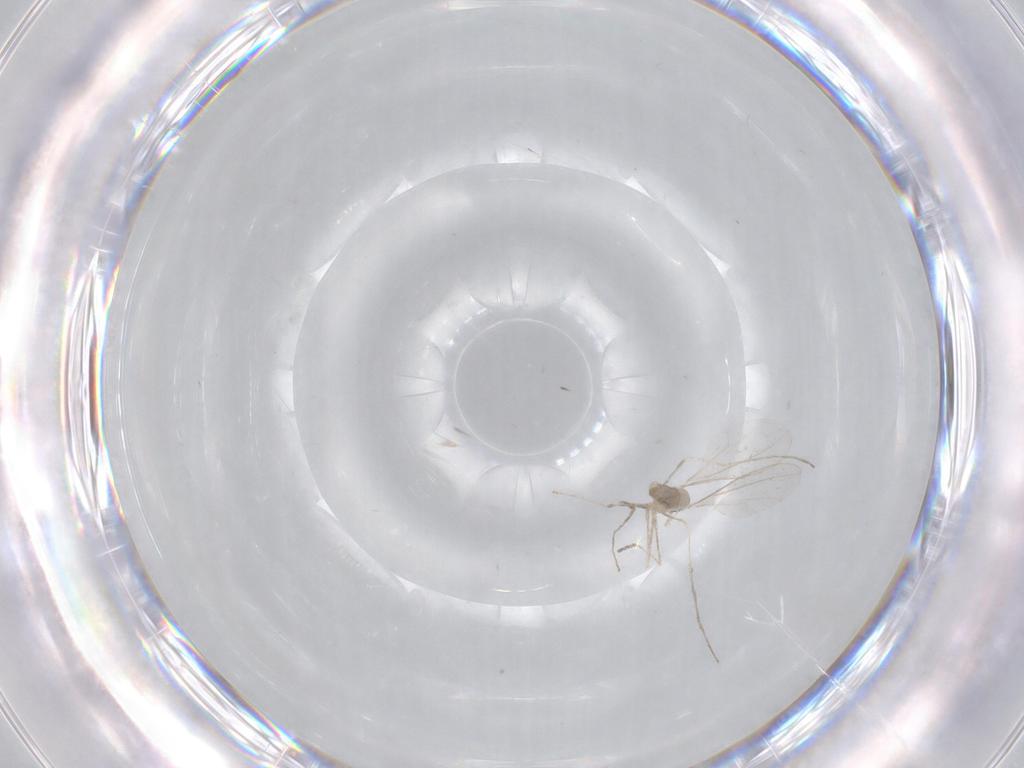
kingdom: Animalia
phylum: Arthropoda
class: Insecta
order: Diptera
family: Cecidomyiidae
